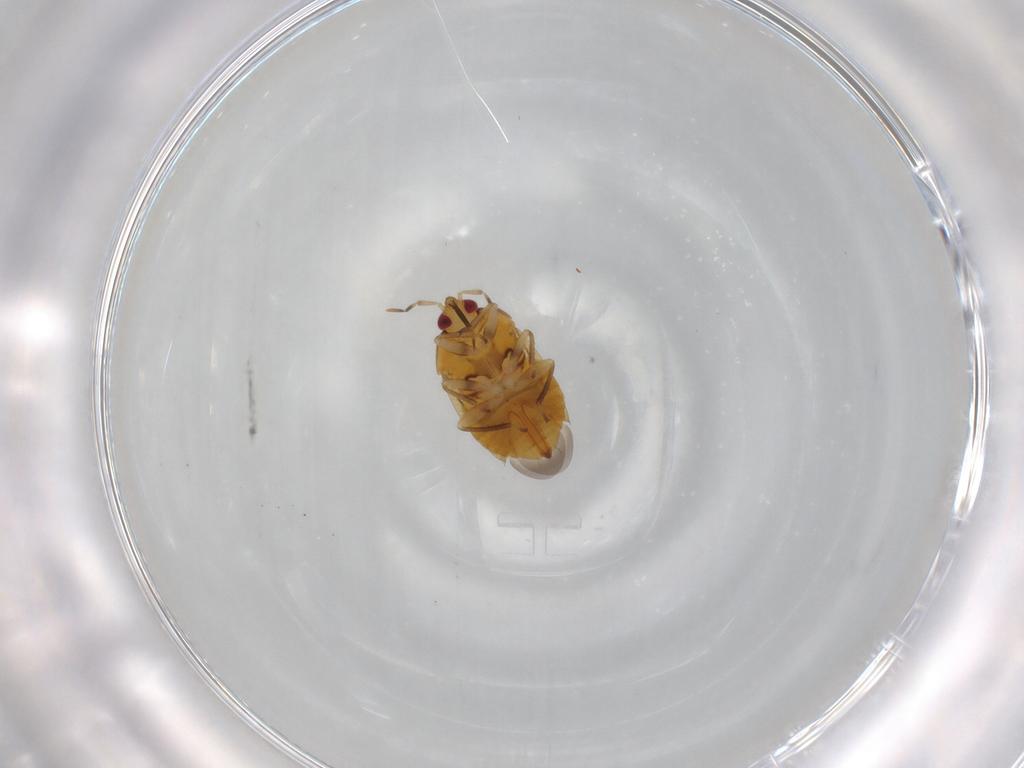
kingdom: Animalia
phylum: Arthropoda
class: Insecta
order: Hemiptera
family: Anthocoridae
